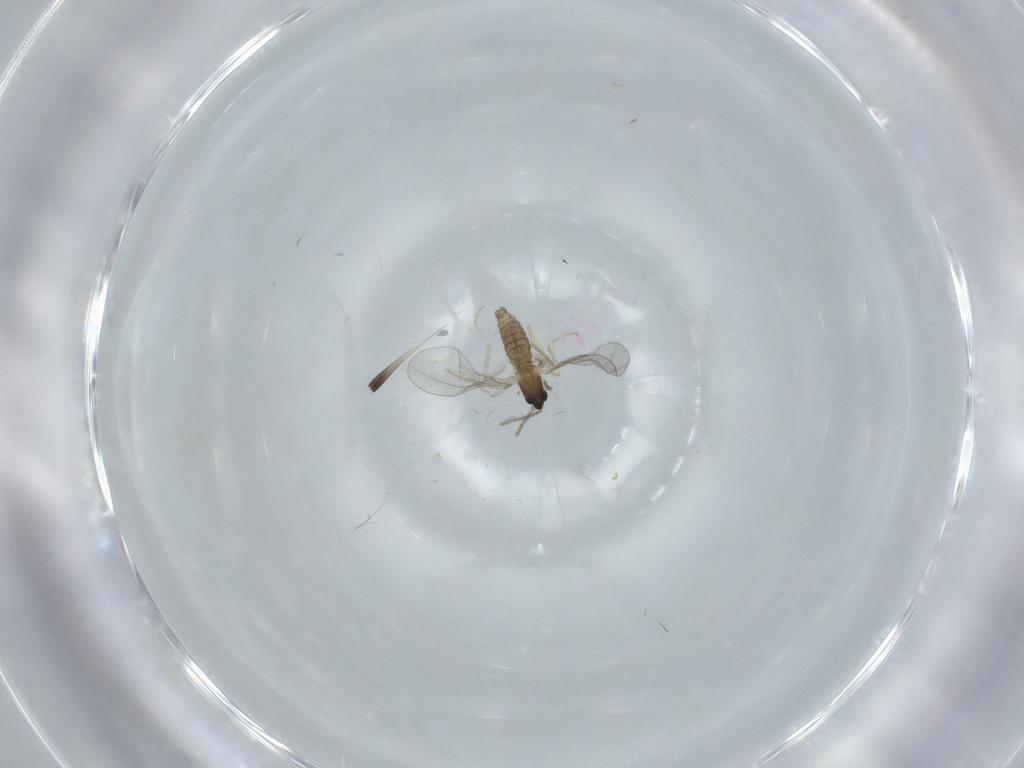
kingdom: Animalia
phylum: Arthropoda
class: Insecta
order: Diptera
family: Cecidomyiidae
